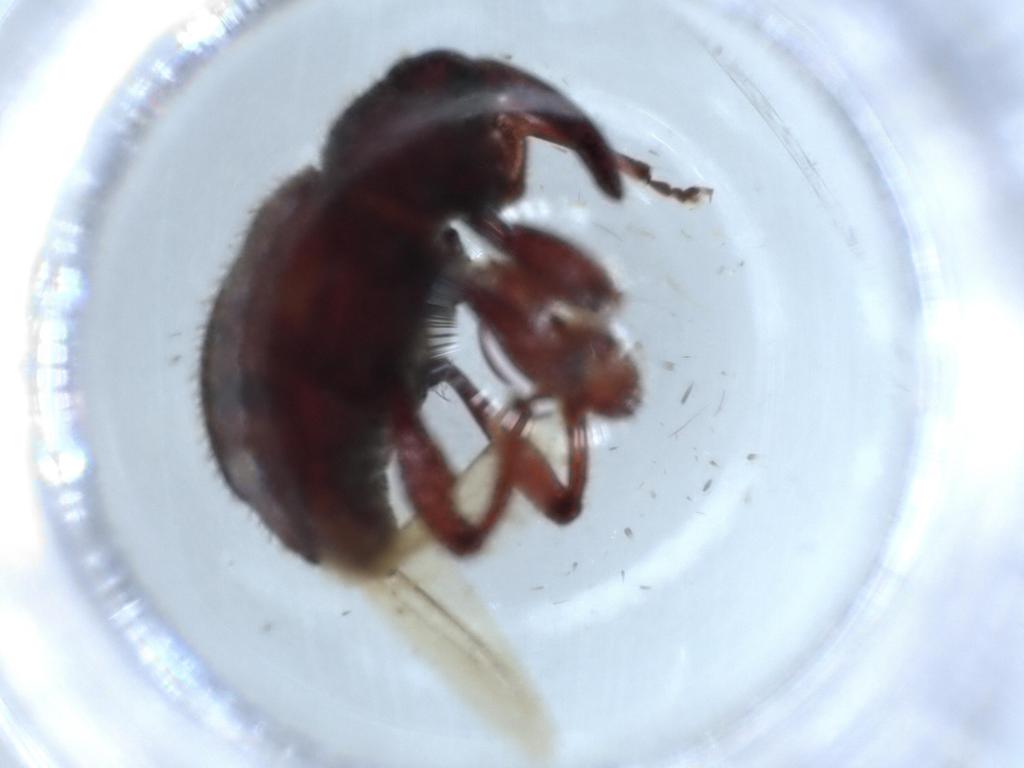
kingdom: Animalia
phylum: Arthropoda
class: Insecta
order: Coleoptera
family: Curculionidae
